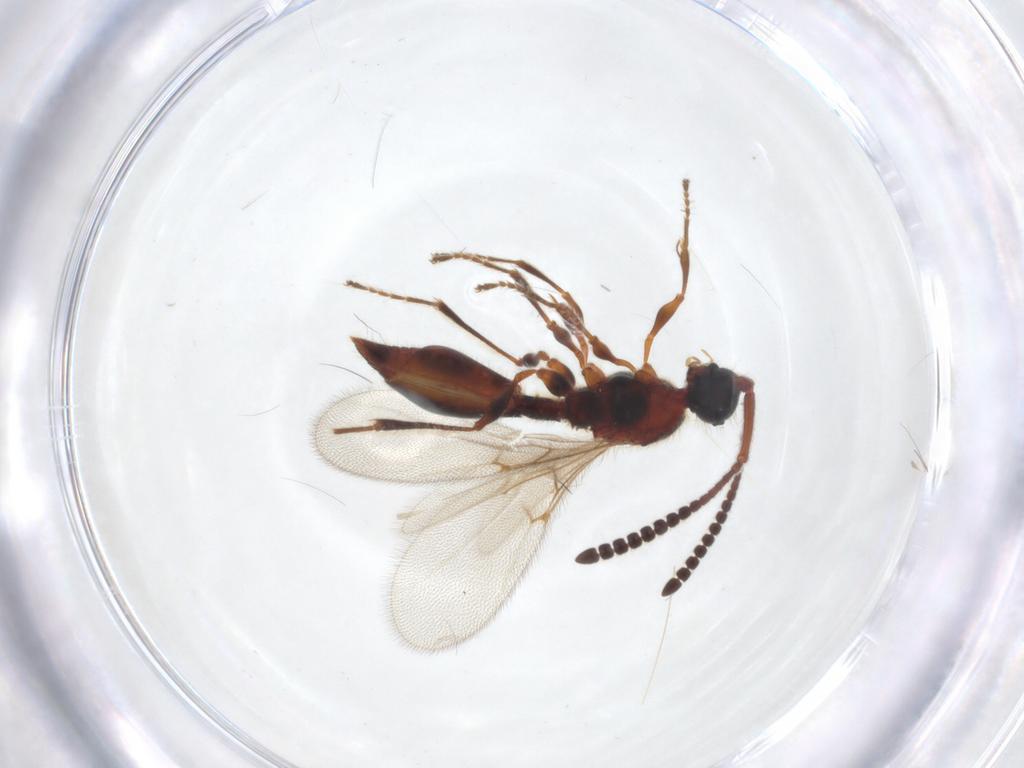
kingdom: Animalia
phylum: Arthropoda
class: Insecta
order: Hymenoptera
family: Diapriidae
